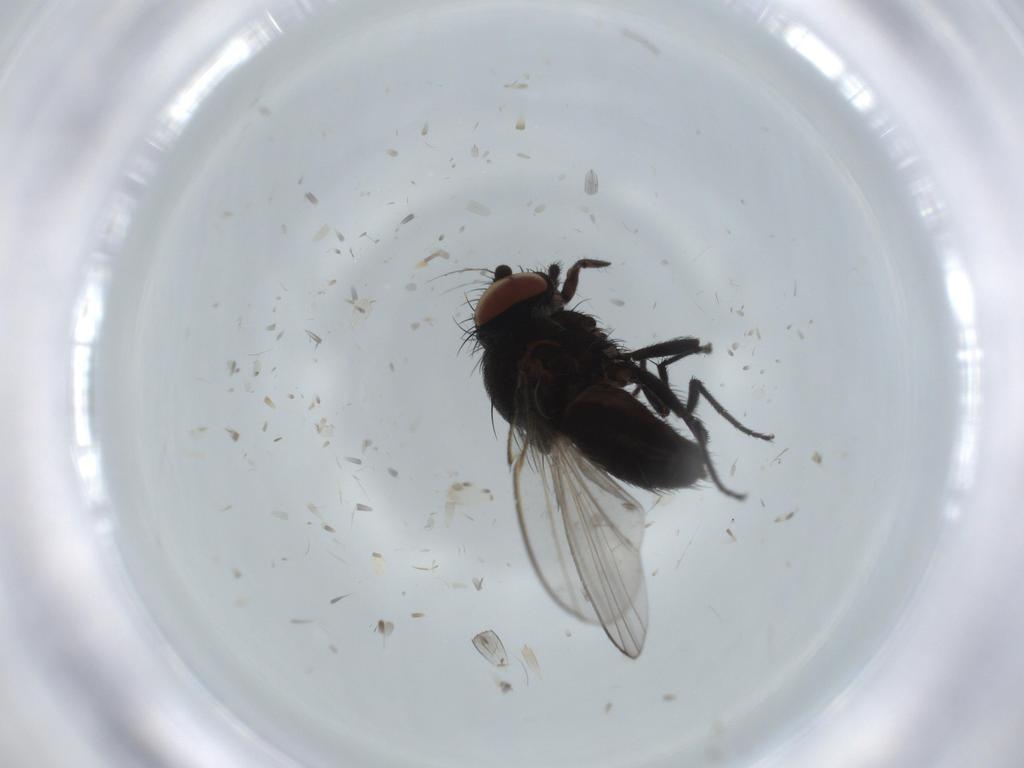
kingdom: Animalia
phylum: Arthropoda
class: Insecta
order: Diptera
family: Milichiidae
